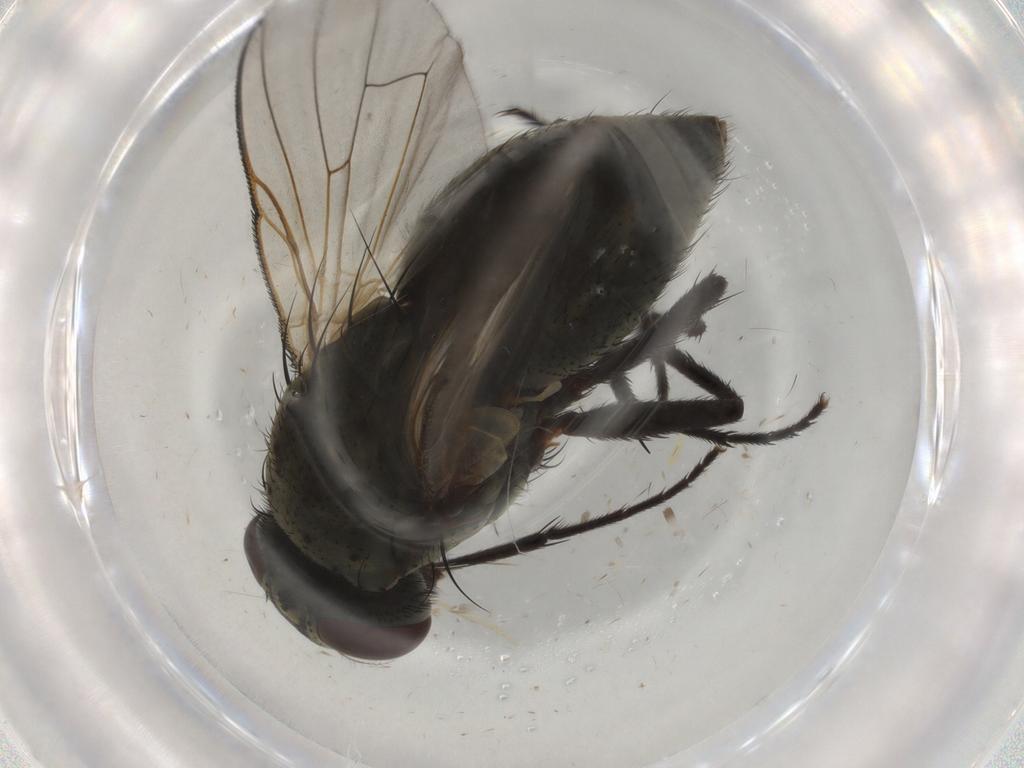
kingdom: Animalia
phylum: Arthropoda
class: Insecta
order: Diptera
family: Muscidae
